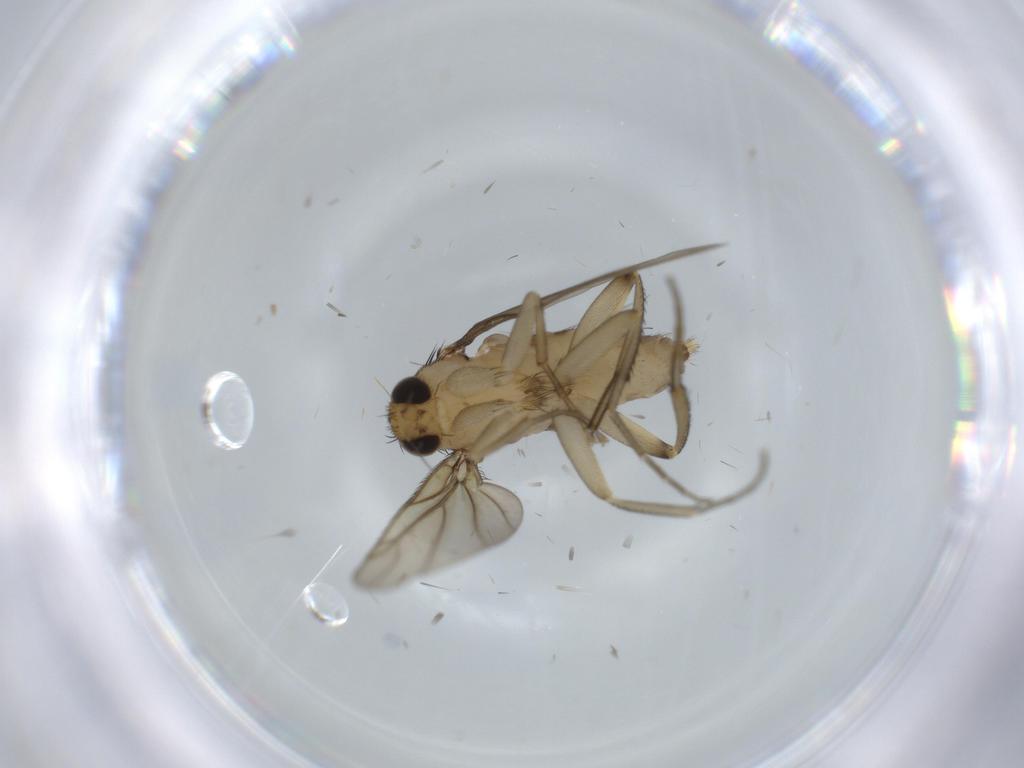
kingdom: Animalia
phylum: Arthropoda
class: Insecta
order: Diptera
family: Phoridae
